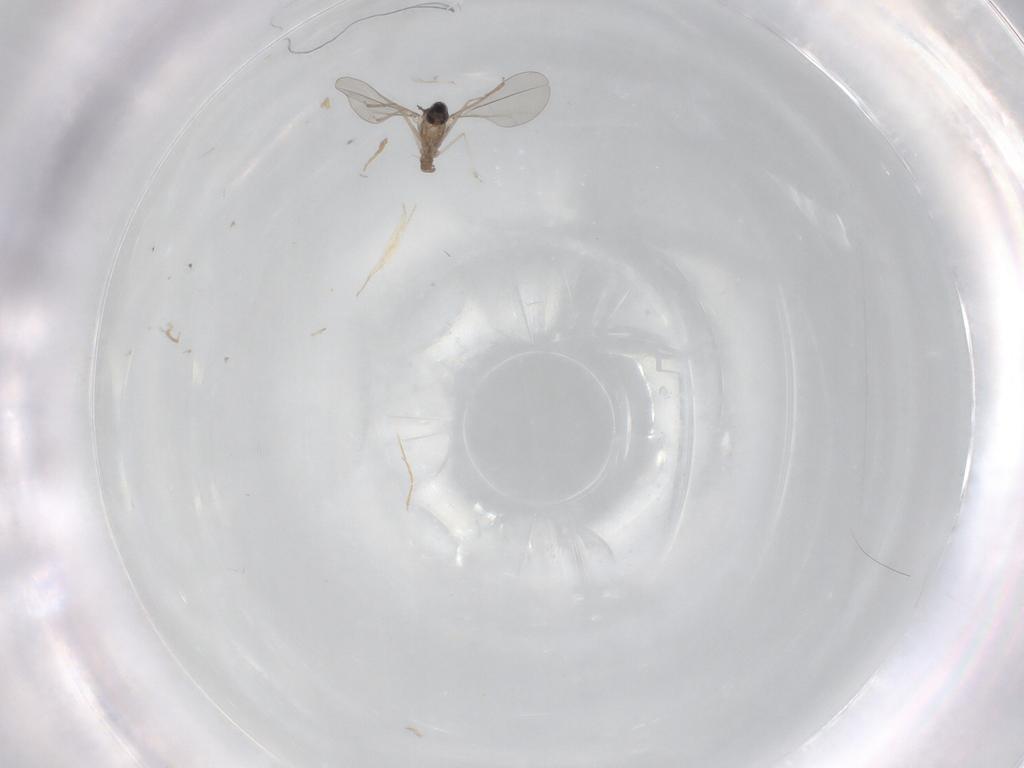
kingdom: Animalia
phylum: Arthropoda
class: Insecta
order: Diptera
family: Cecidomyiidae
